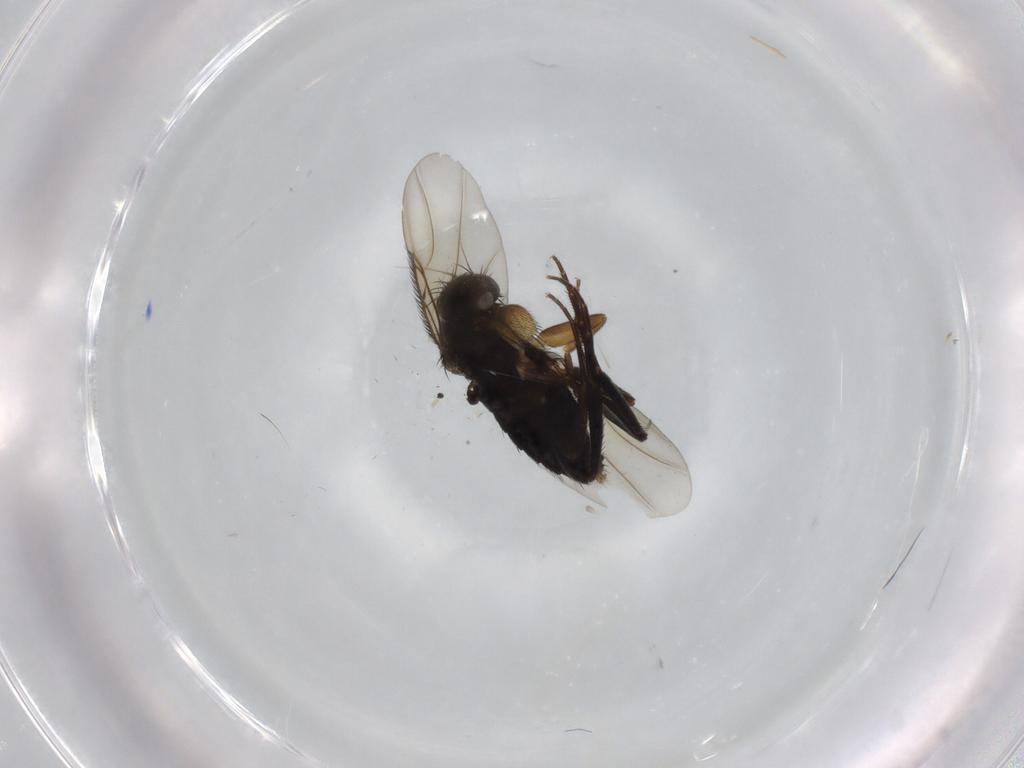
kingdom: Animalia
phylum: Arthropoda
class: Insecta
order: Diptera
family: Phoridae
